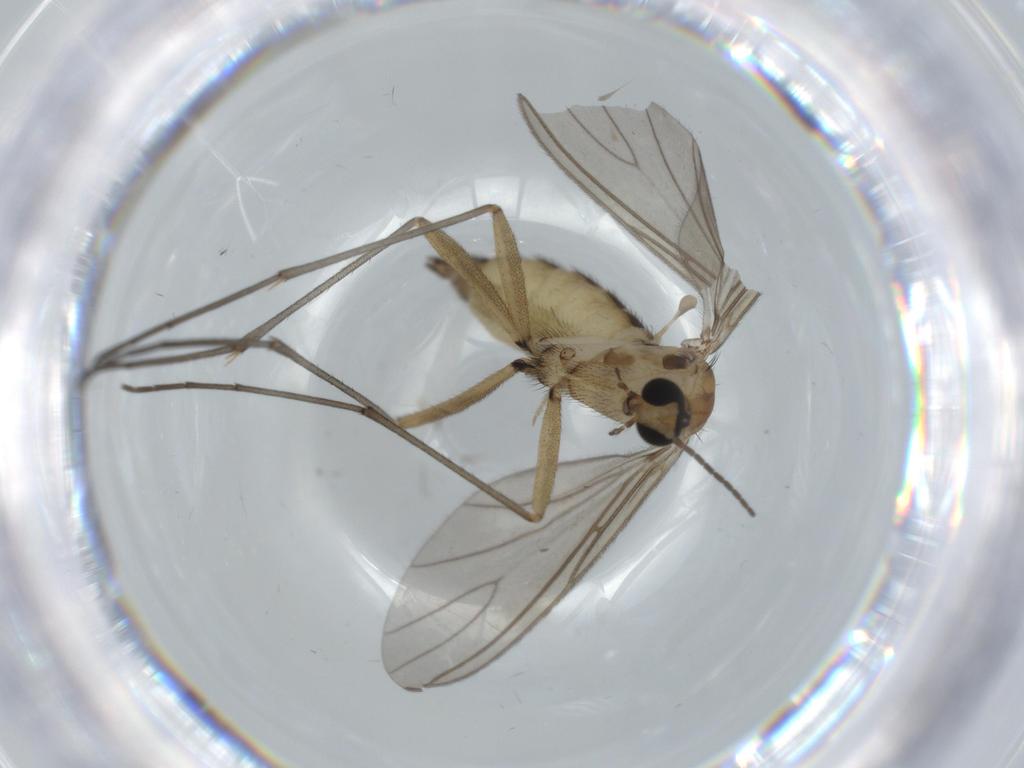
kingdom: Animalia
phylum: Arthropoda
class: Insecta
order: Diptera
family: Sciaridae
